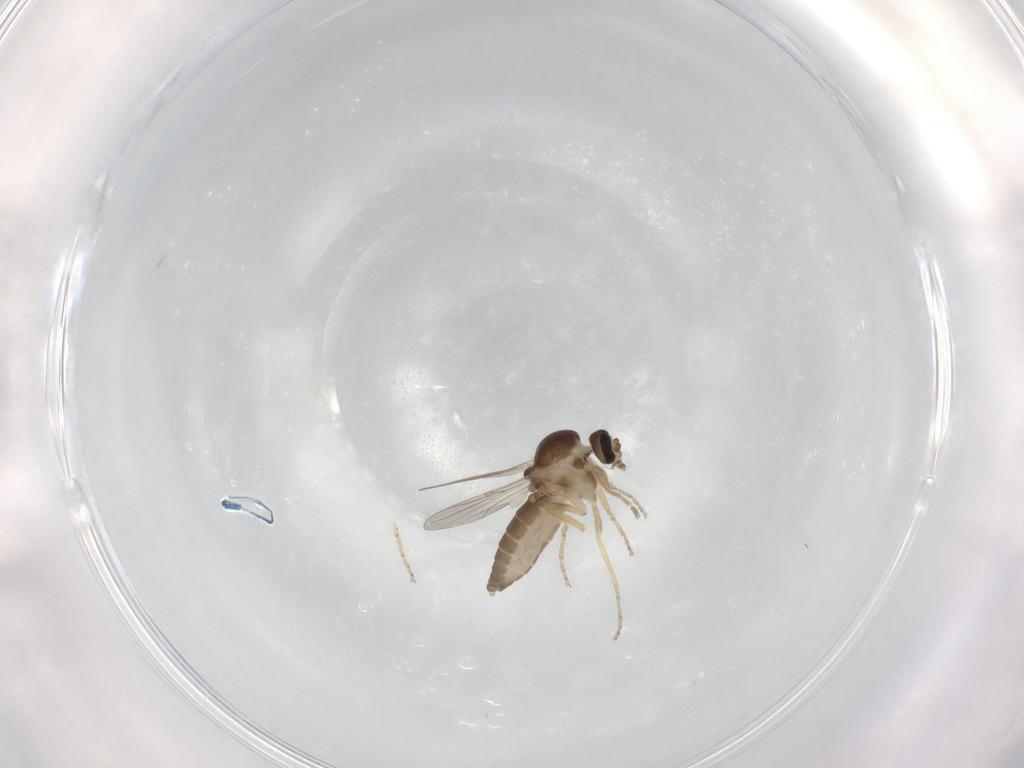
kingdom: Animalia
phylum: Arthropoda
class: Insecta
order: Diptera
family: Ceratopogonidae
